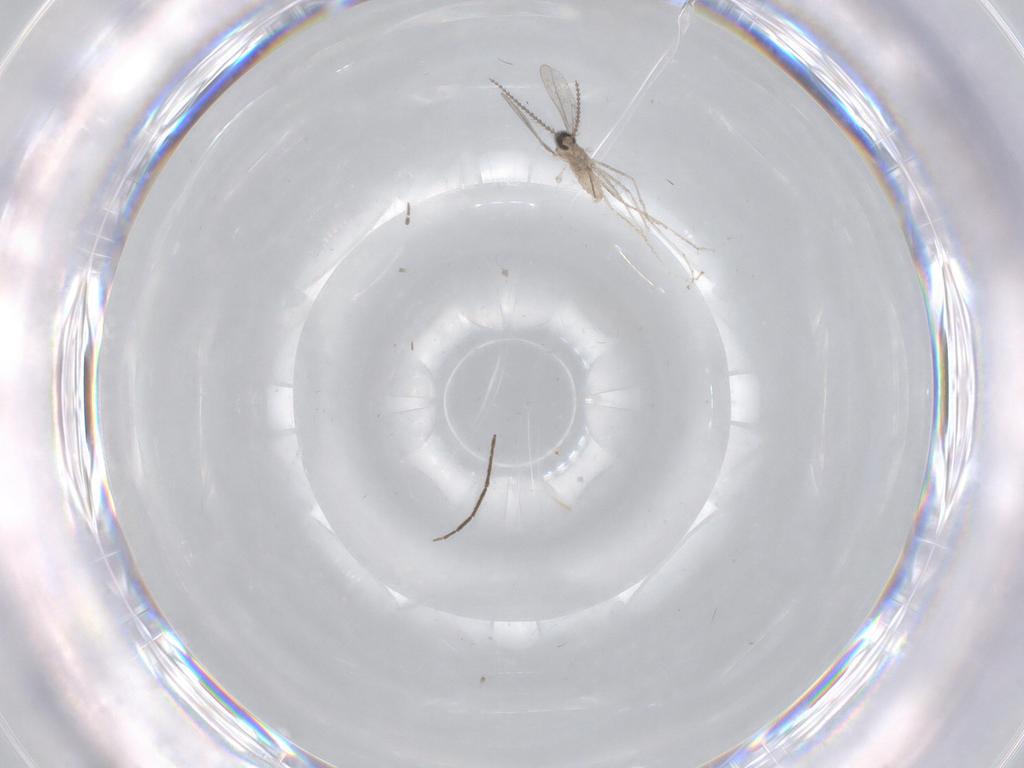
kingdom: Animalia
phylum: Arthropoda
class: Insecta
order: Diptera
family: Chironomidae
